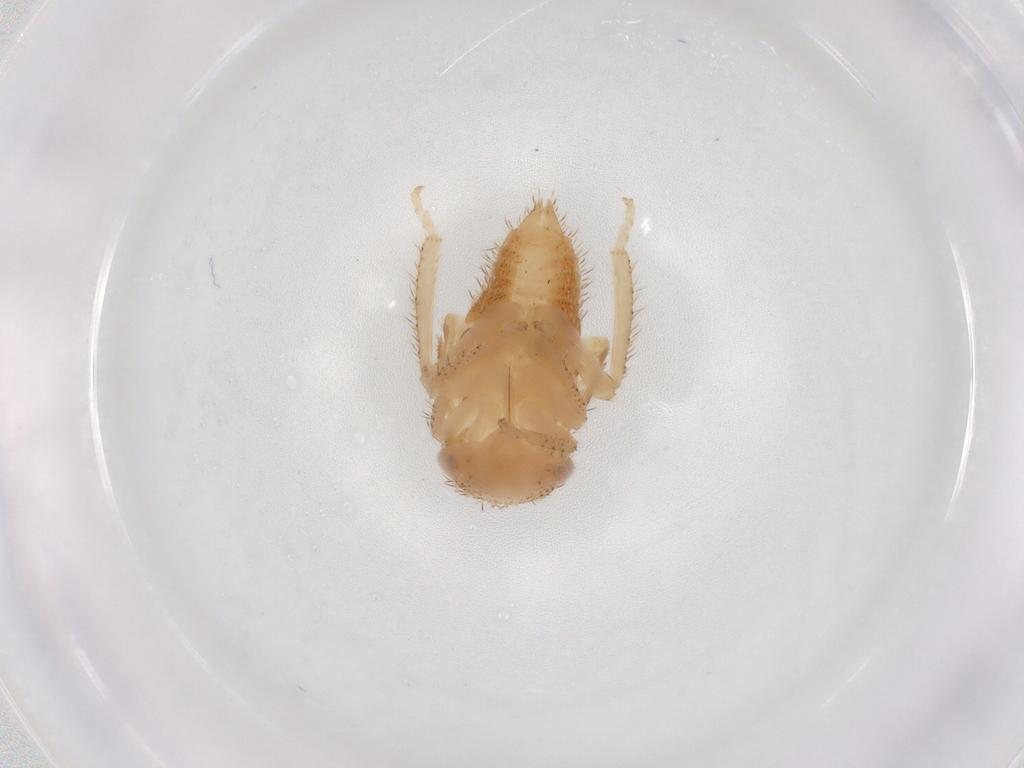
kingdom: Animalia
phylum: Arthropoda
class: Insecta
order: Hemiptera
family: Cicadellidae
